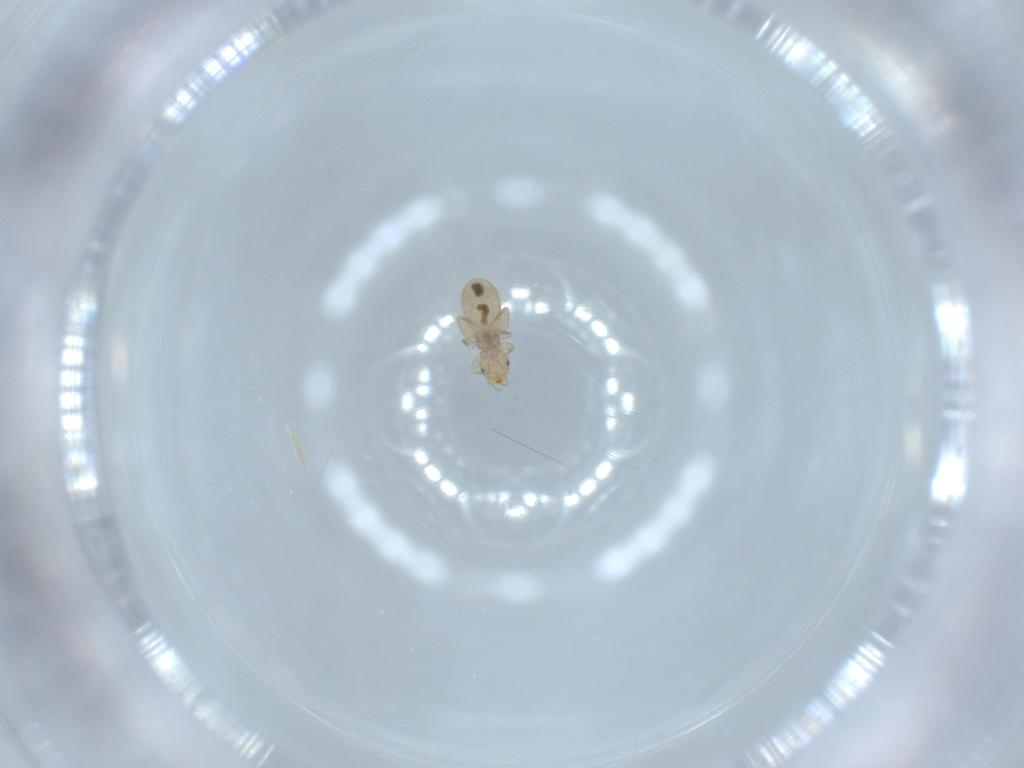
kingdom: Animalia
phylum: Arthropoda
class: Insecta
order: Psocodea
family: Liposcelididae
